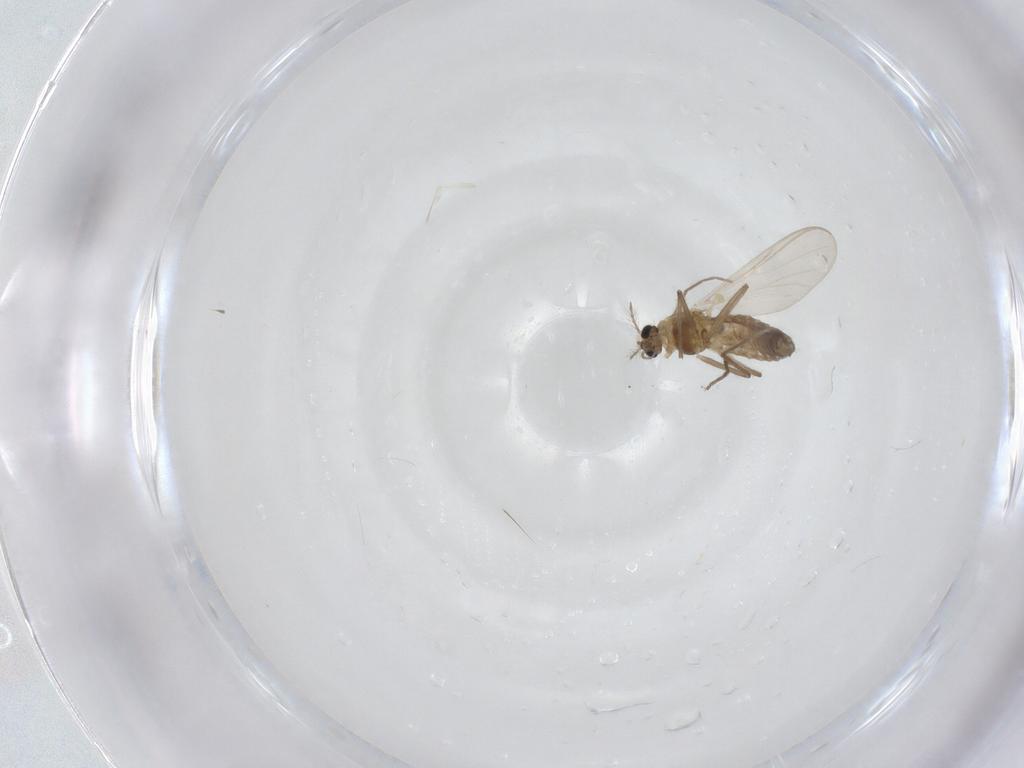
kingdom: Animalia
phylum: Arthropoda
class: Insecta
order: Diptera
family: Chironomidae
